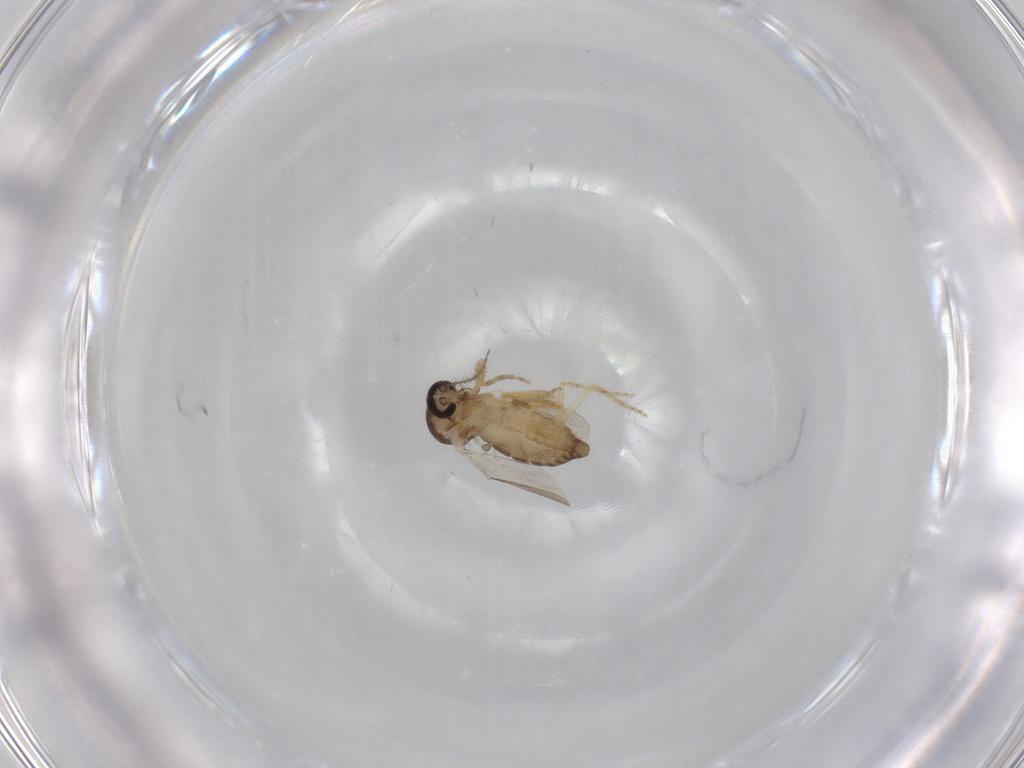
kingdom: Animalia
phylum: Arthropoda
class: Insecta
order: Diptera
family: Ceratopogonidae
